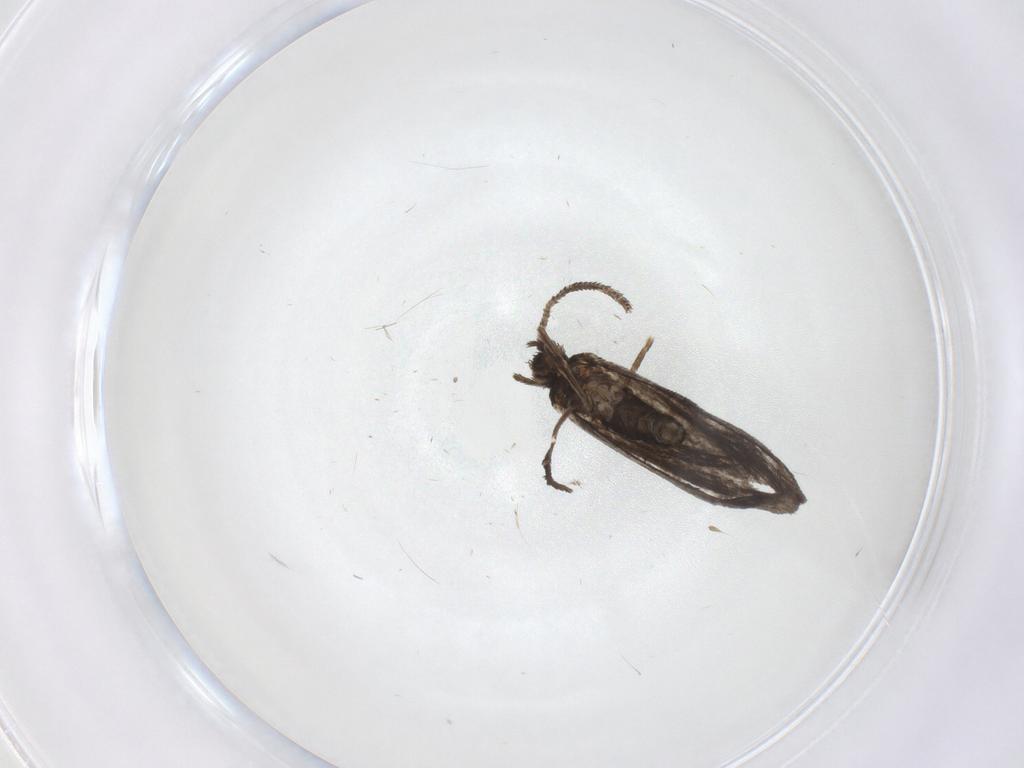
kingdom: Animalia
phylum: Arthropoda
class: Insecta
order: Lepidoptera
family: Nymphalidae
